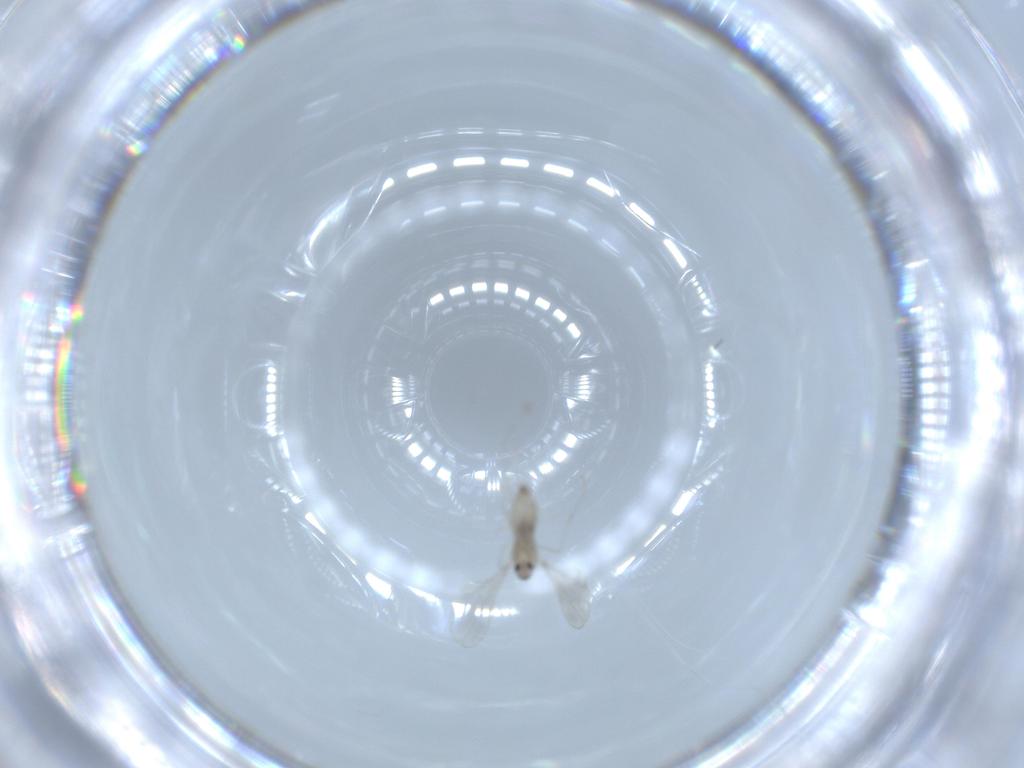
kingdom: Animalia
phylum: Arthropoda
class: Insecta
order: Diptera
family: Cecidomyiidae
